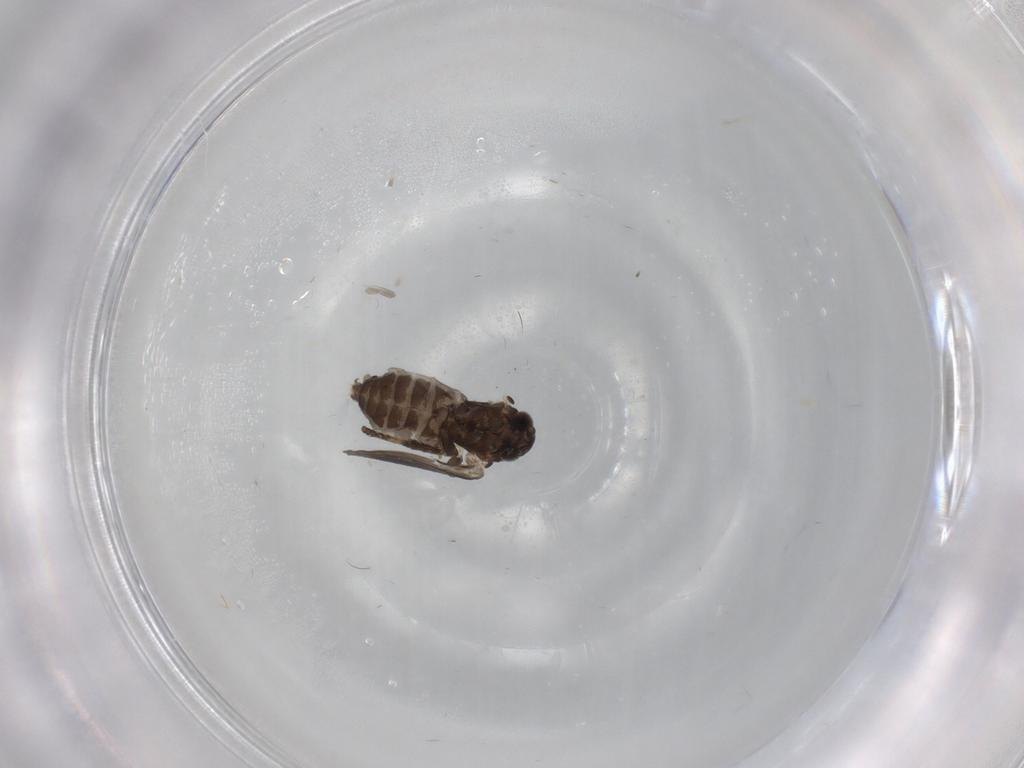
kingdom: Animalia
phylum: Arthropoda
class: Insecta
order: Diptera
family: Psychodidae
